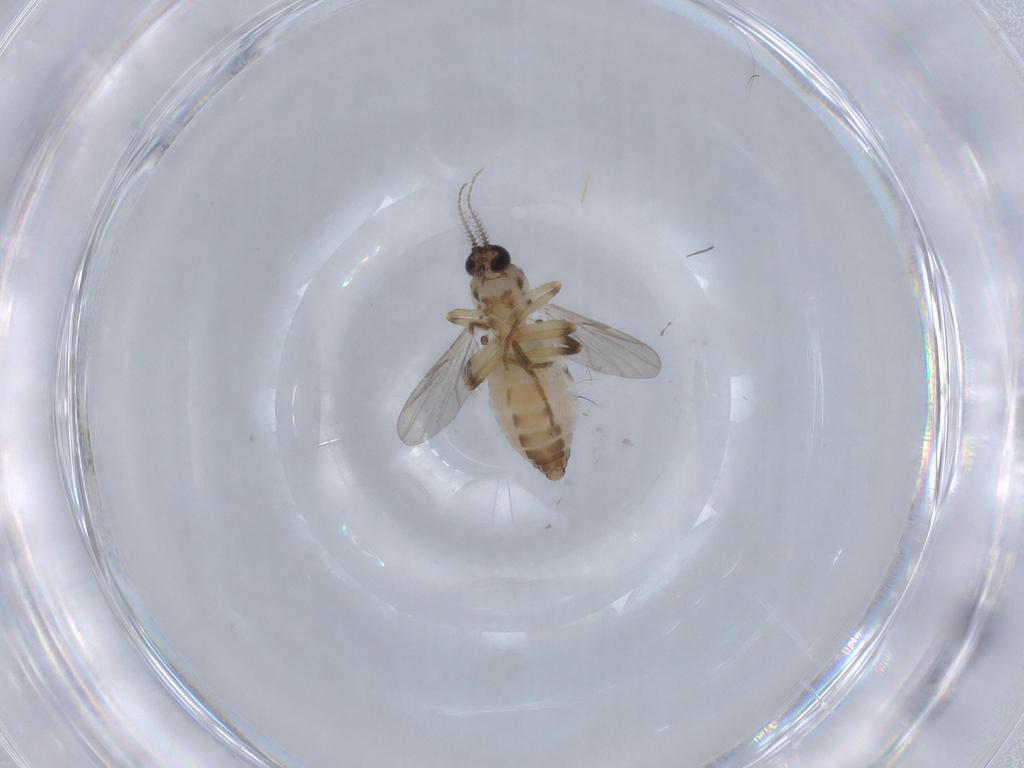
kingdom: Animalia
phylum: Arthropoda
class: Insecta
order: Diptera
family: Ceratopogonidae
